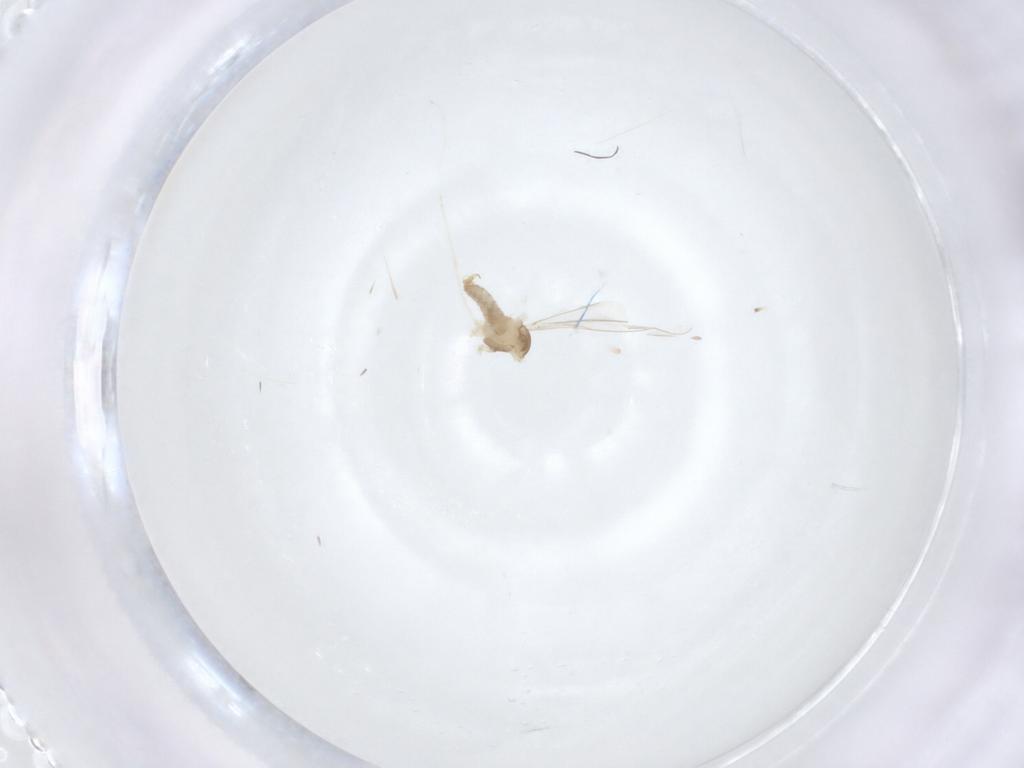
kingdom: Animalia
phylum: Arthropoda
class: Insecta
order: Diptera
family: Cecidomyiidae
